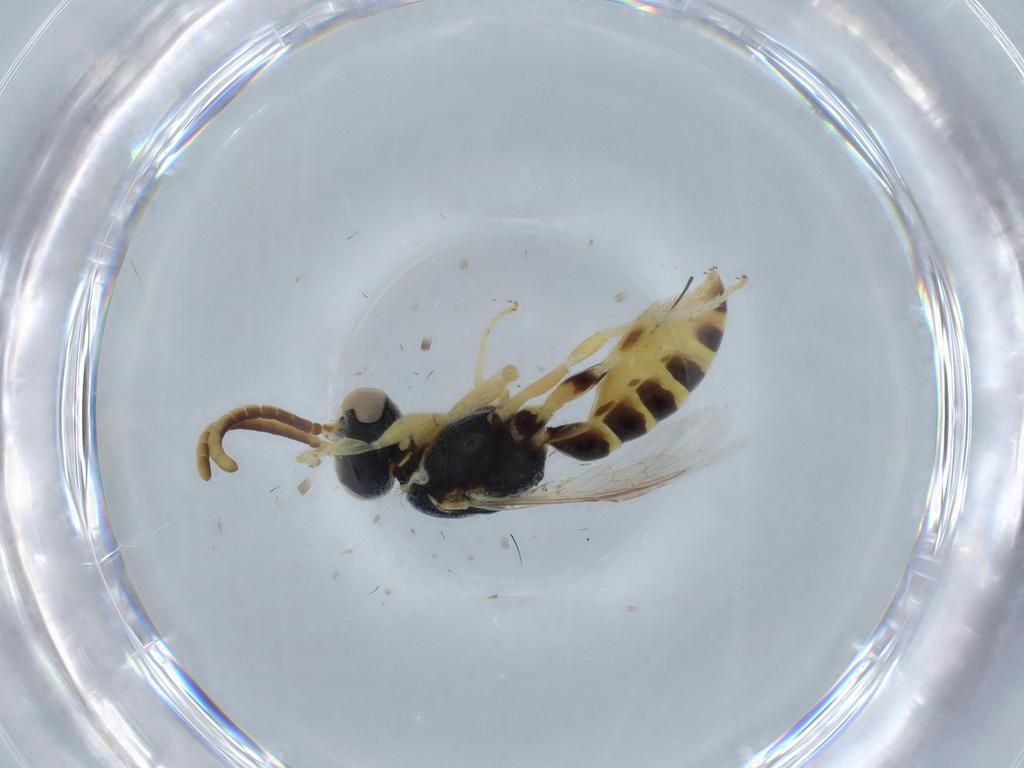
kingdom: Animalia
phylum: Arthropoda
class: Insecta
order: Hymenoptera
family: Halictidae
